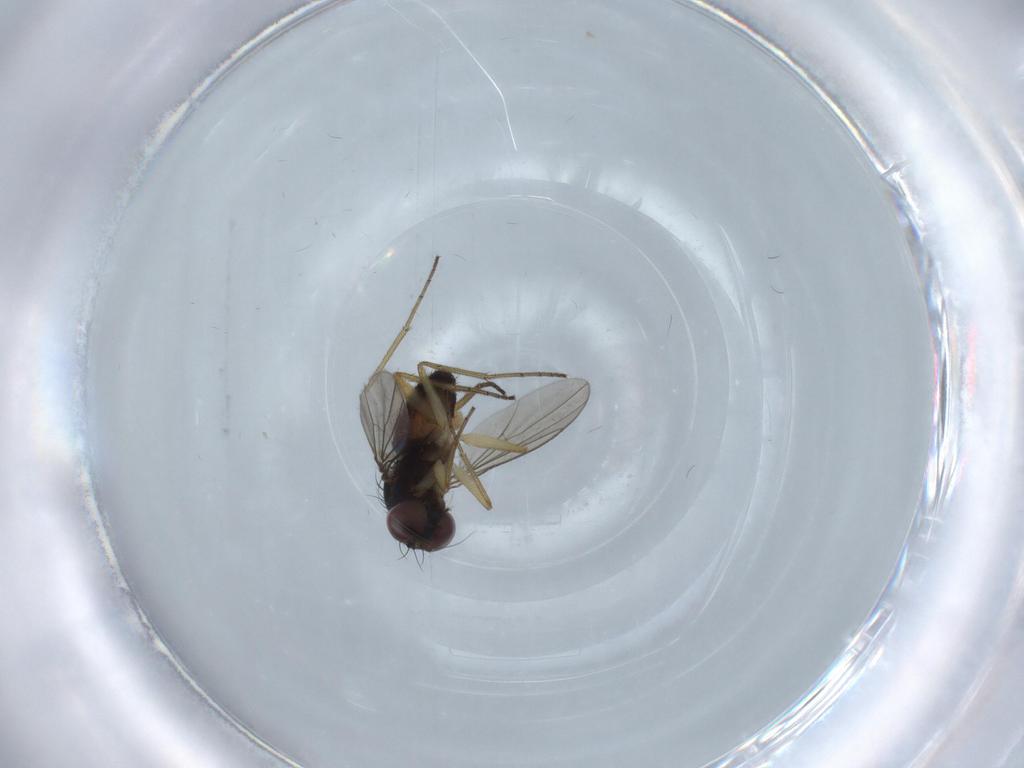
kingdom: Animalia
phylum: Arthropoda
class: Insecta
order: Diptera
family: Dolichopodidae
